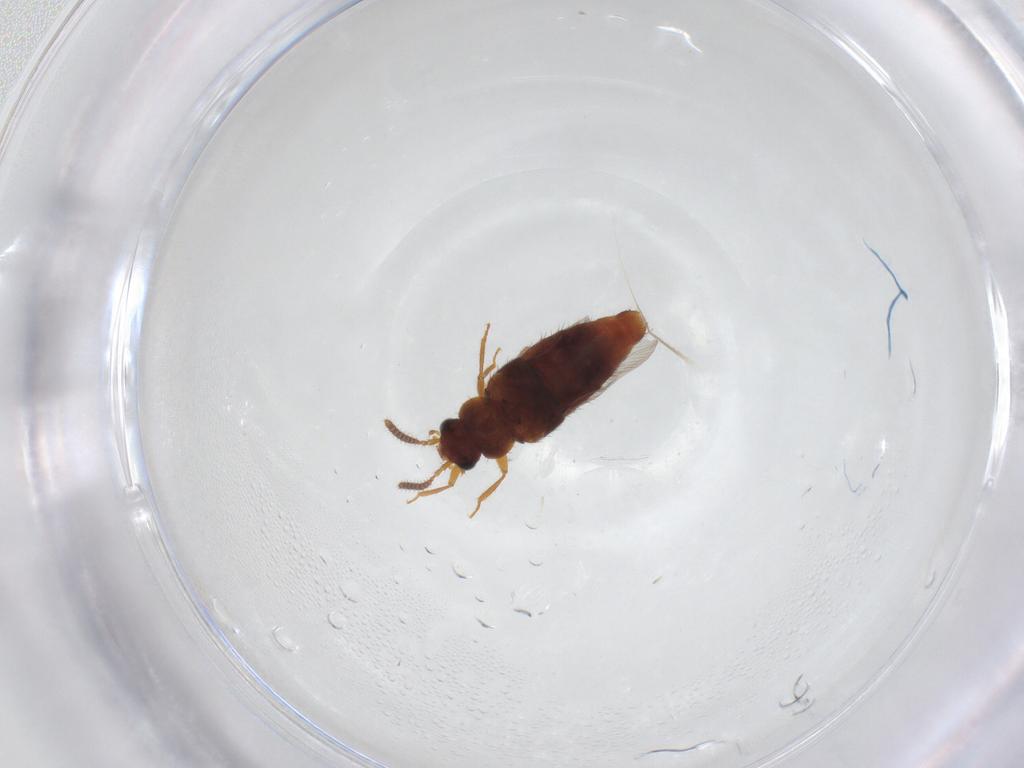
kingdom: Animalia
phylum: Arthropoda
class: Insecta
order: Coleoptera
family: Staphylinidae
